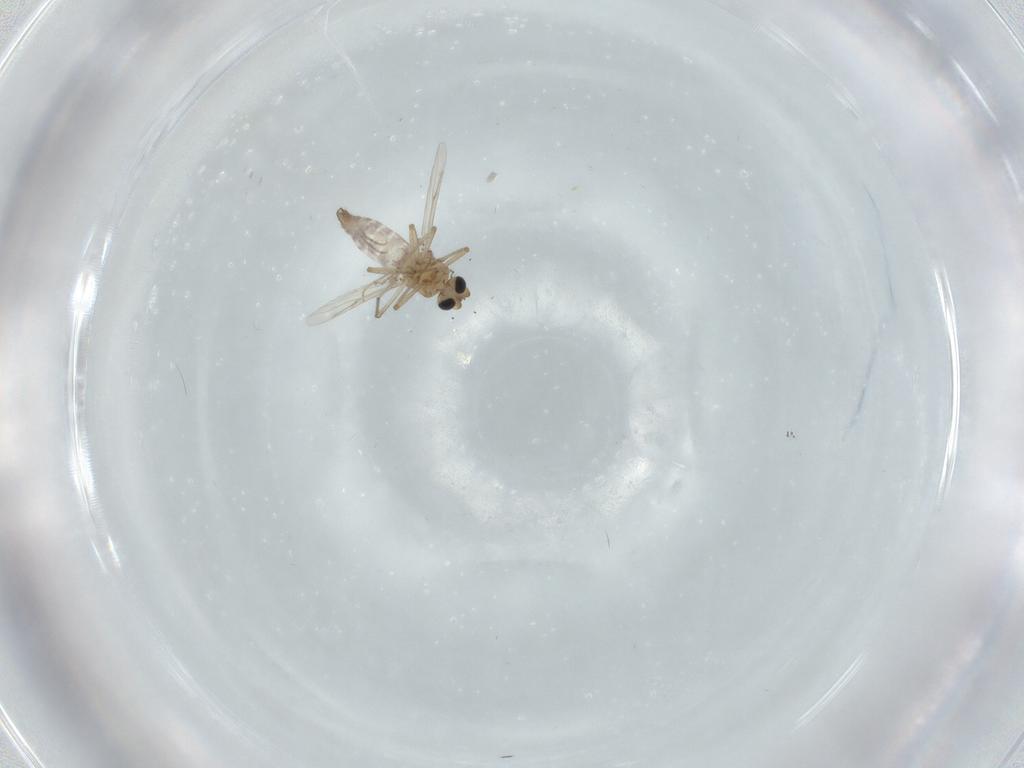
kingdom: Animalia
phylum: Arthropoda
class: Insecta
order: Diptera
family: Ceratopogonidae
